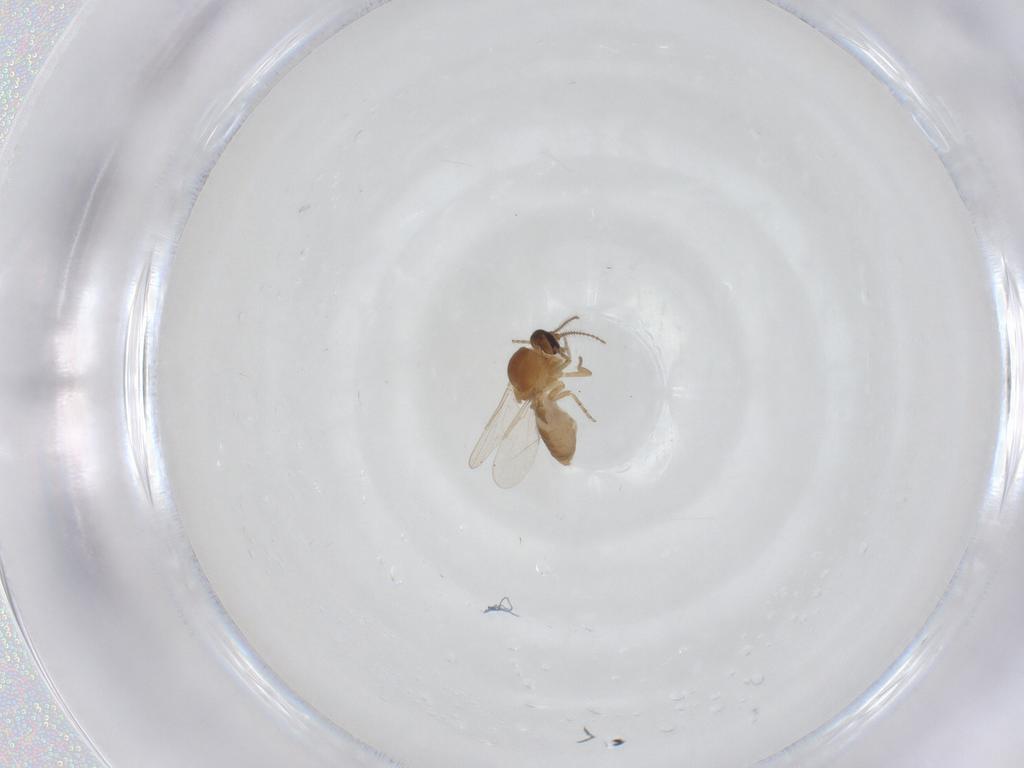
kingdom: Animalia
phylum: Arthropoda
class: Insecta
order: Diptera
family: Ceratopogonidae
